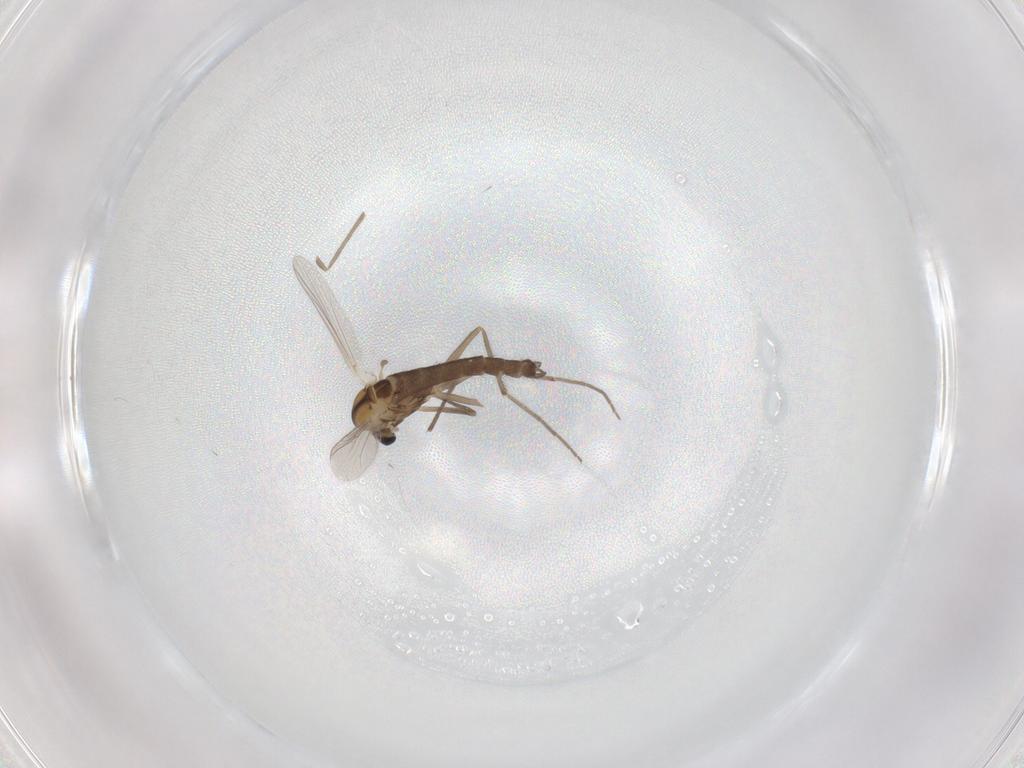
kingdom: Animalia
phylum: Arthropoda
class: Insecta
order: Diptera
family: Chironomidae
